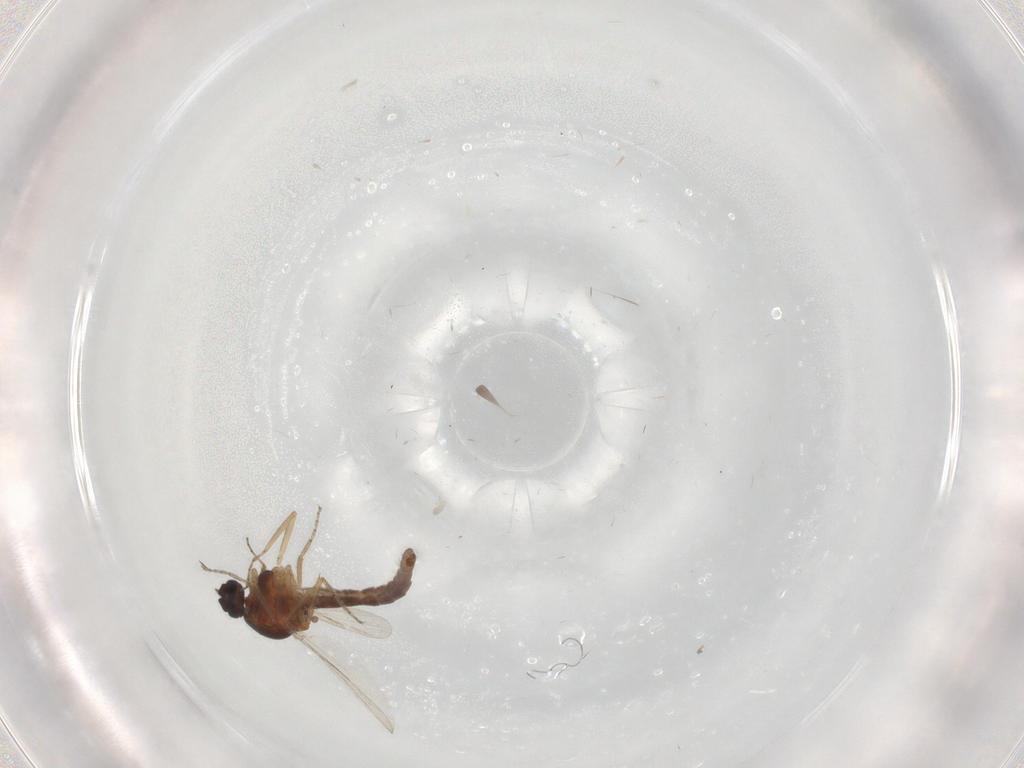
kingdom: Animalia
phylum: Arthropoda
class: Insecta
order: Diptera
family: Ceratopogonidae
